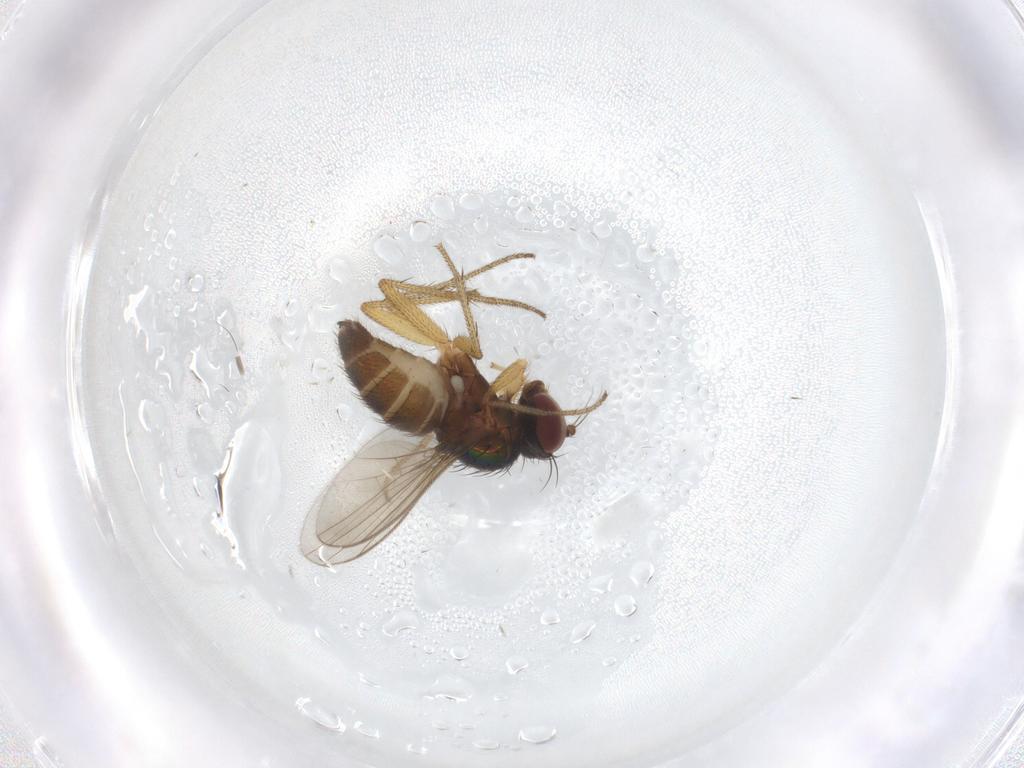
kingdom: Animalia
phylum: Arthropoda
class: Insecta
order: Diptera
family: Dolichopodidae
